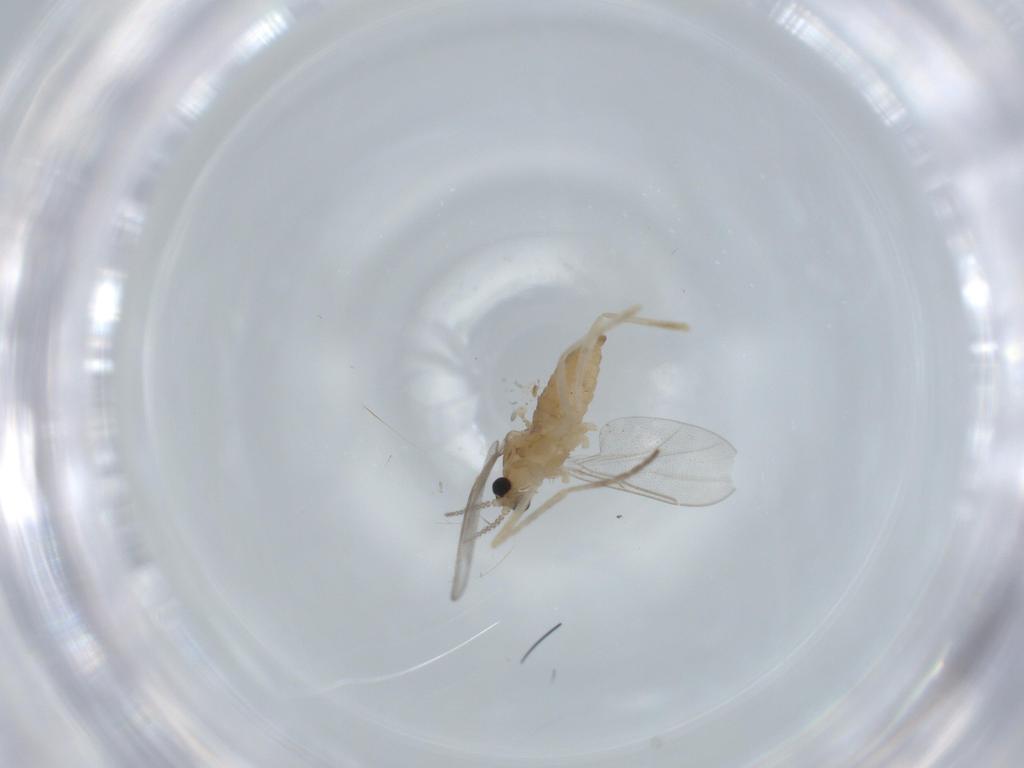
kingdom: Animalia
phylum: Arthropoda
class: Insecta
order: Diptera
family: Cecidomyiidae
